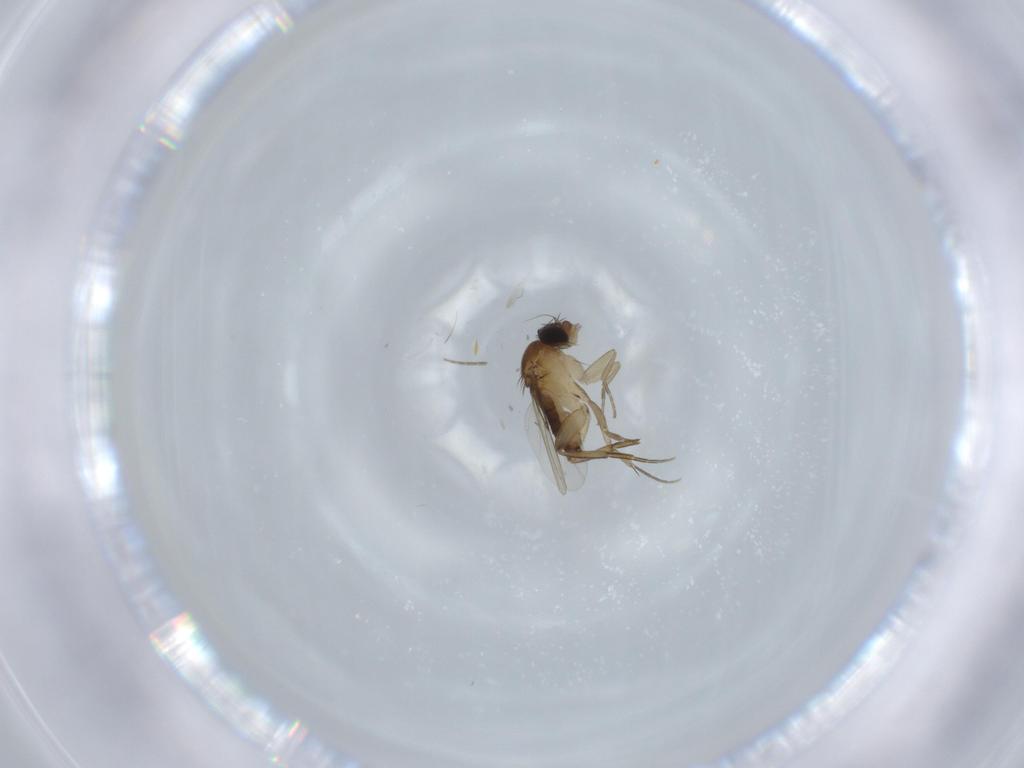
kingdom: Animalia
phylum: Arthropoda
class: Insecta
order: Diptera
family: Phoridae
